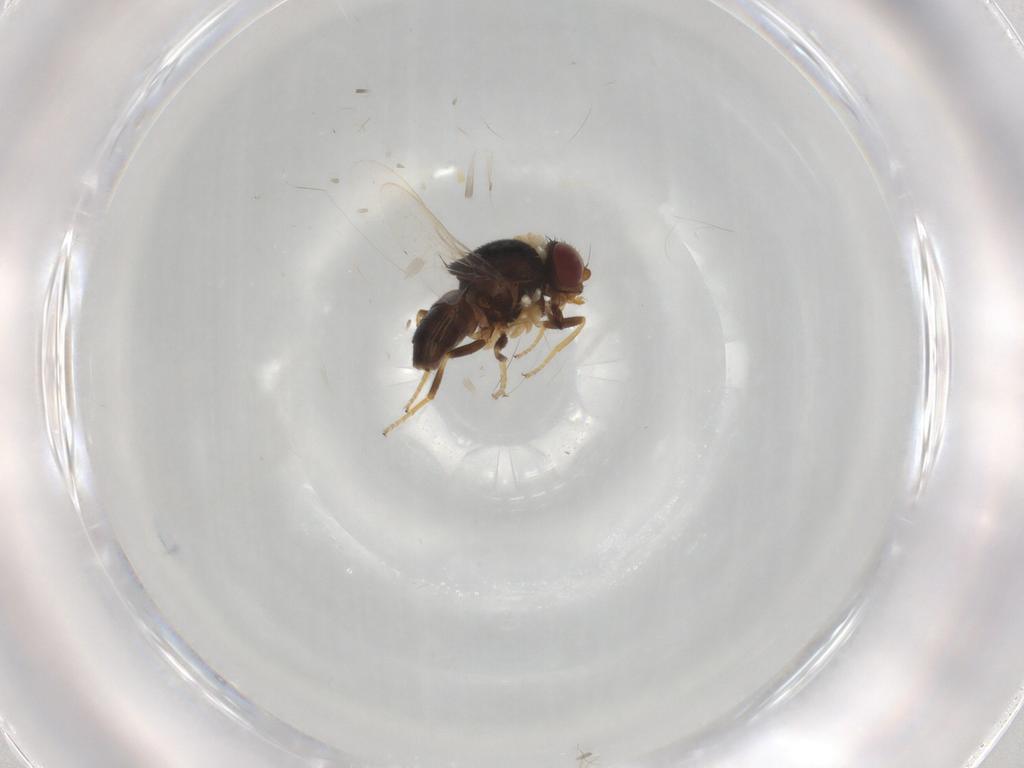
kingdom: Animalia
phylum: Arthropoda
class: Insecta
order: Diptera
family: Chloropidae
